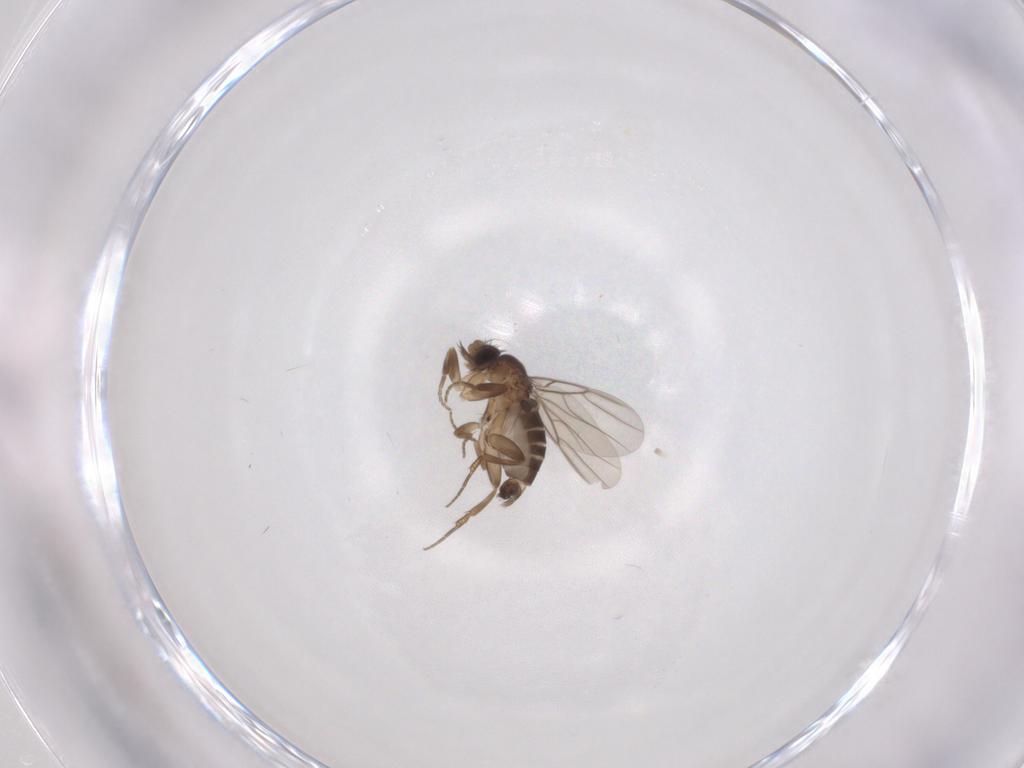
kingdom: Animalia
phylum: Arthropoda
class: Insecta
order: Diptera
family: Phoridae
